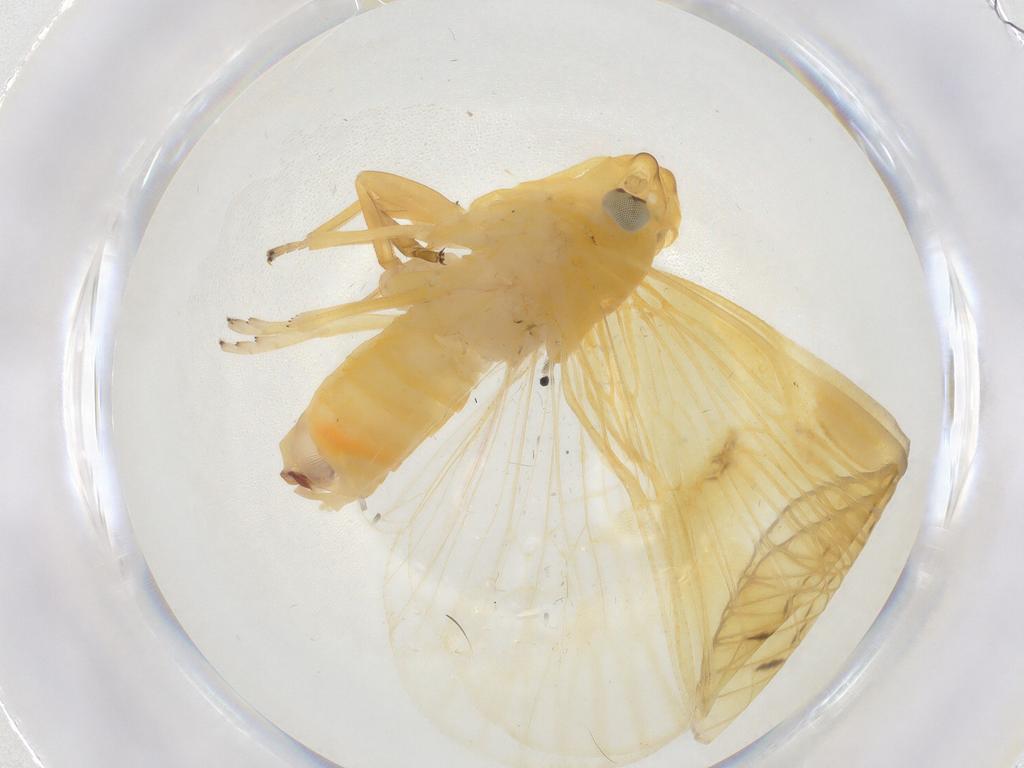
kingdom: Animalia
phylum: Arthropoda
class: Insecta
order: Hemiptera
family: Cixiidae
